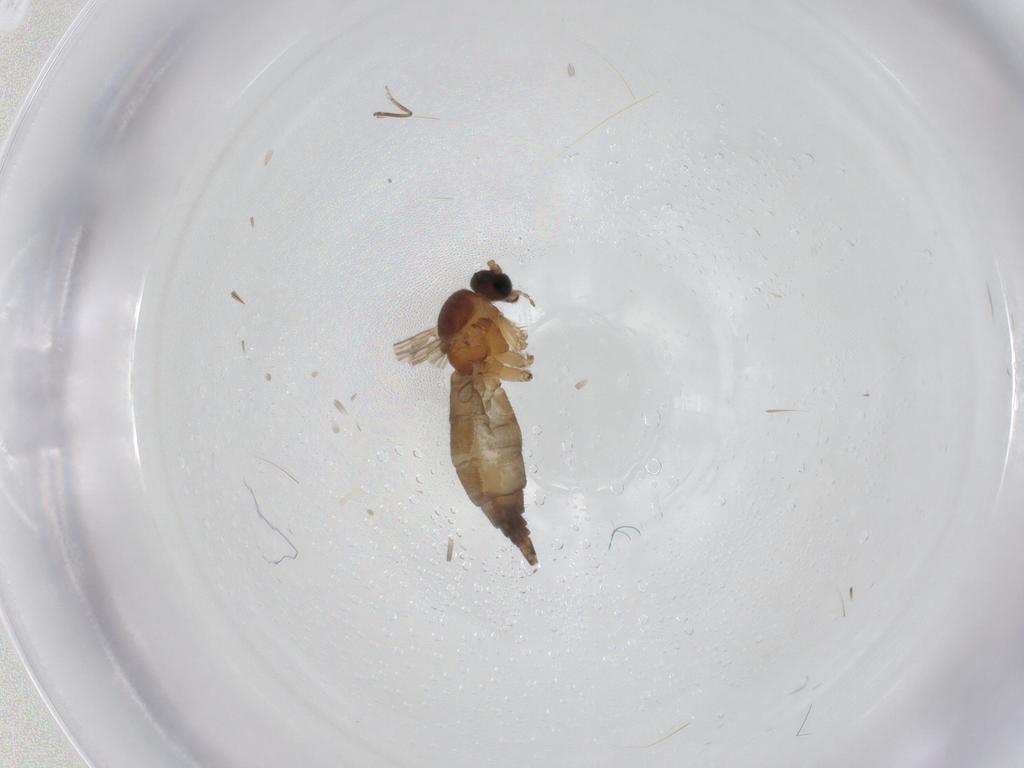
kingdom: Animalia
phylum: Arthropoda
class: Insecta
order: Diptera
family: Sciaridae
